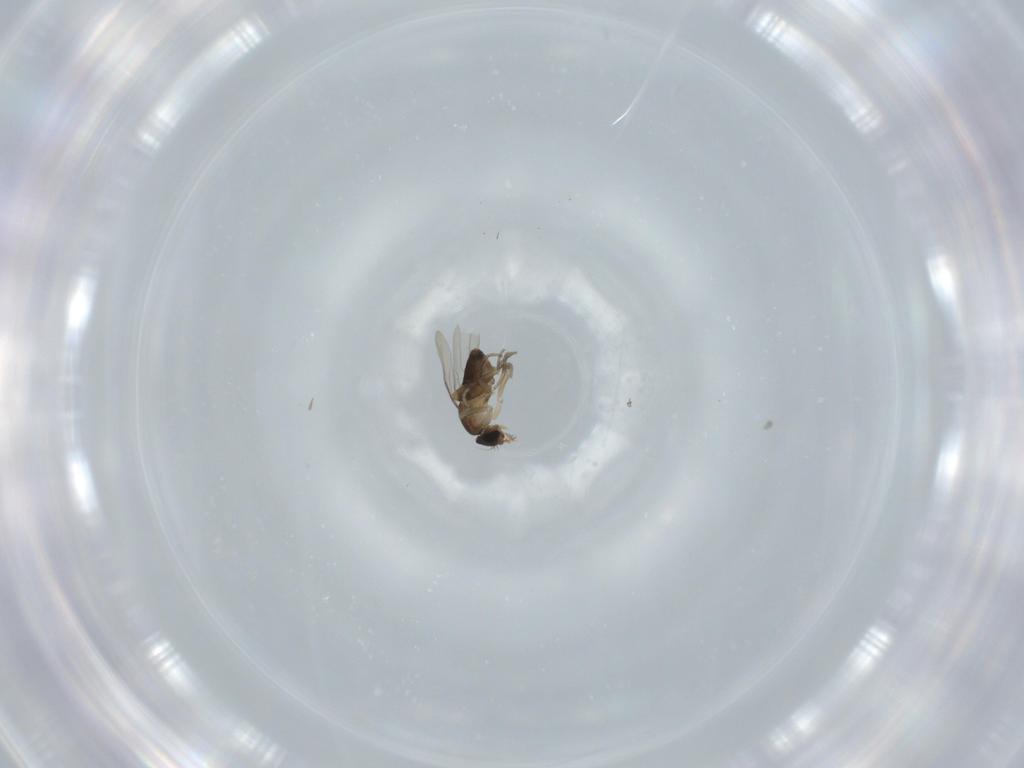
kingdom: Animalia
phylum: Arthropoda
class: Insecta
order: Diptera
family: Phoridae
